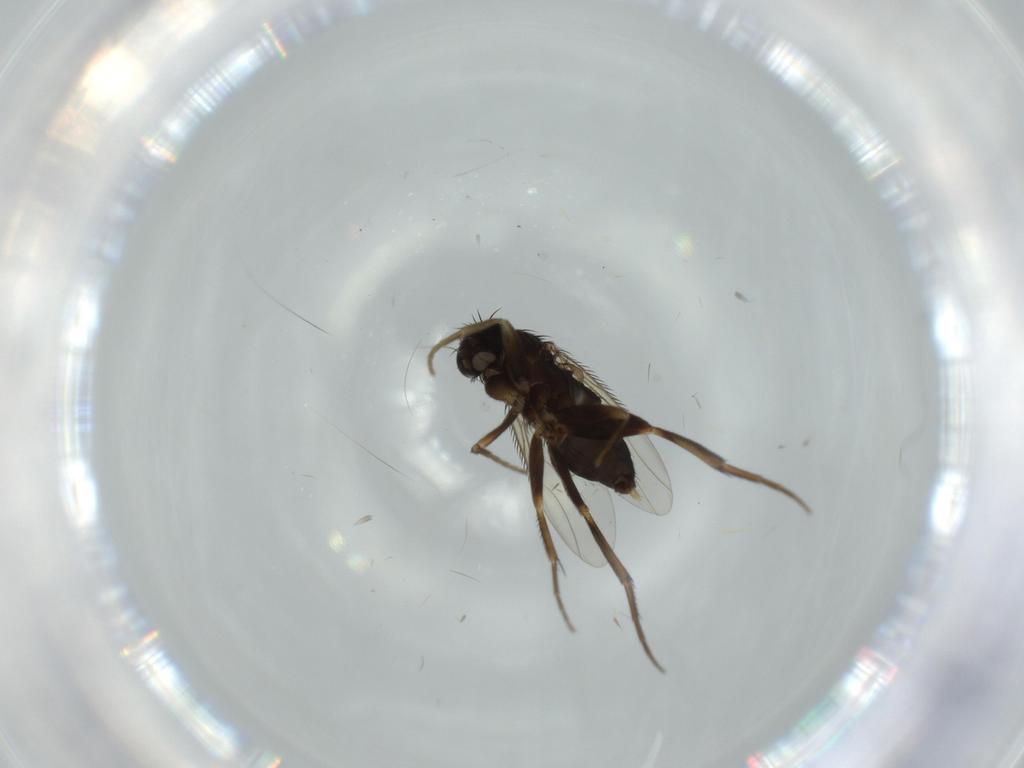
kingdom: Animalia
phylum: Arthropoda
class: Insecta
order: Diptera
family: Phoridae
